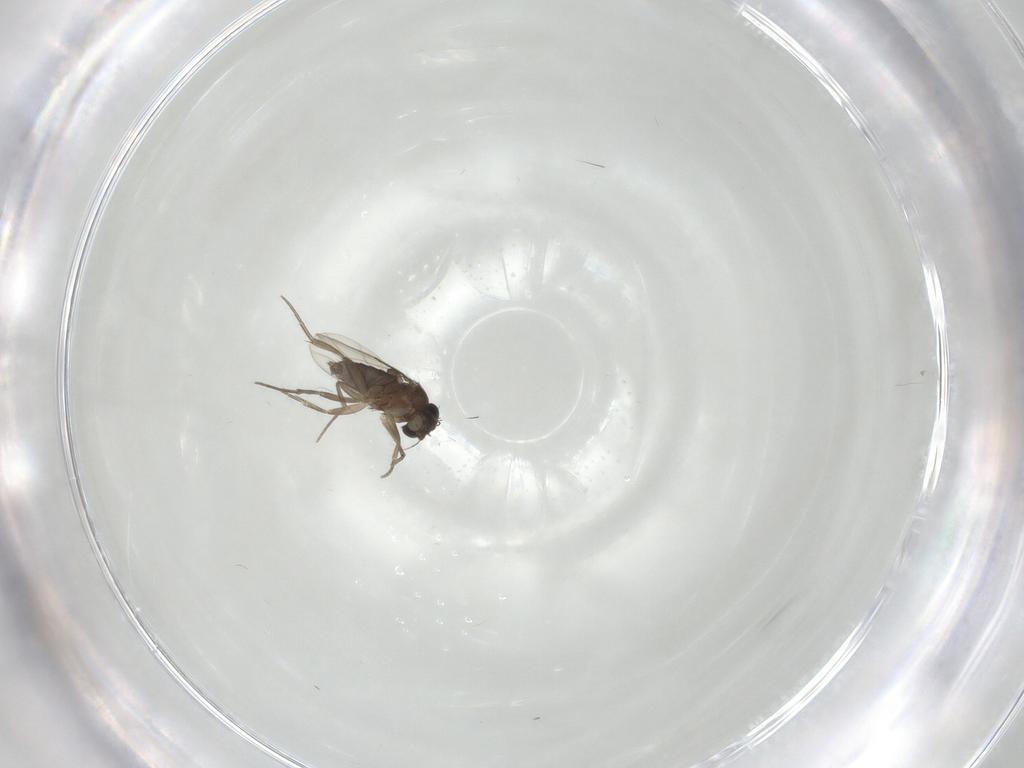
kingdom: Animalia
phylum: Arthropoda
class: Insecta
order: Diptera
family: Phoridae
